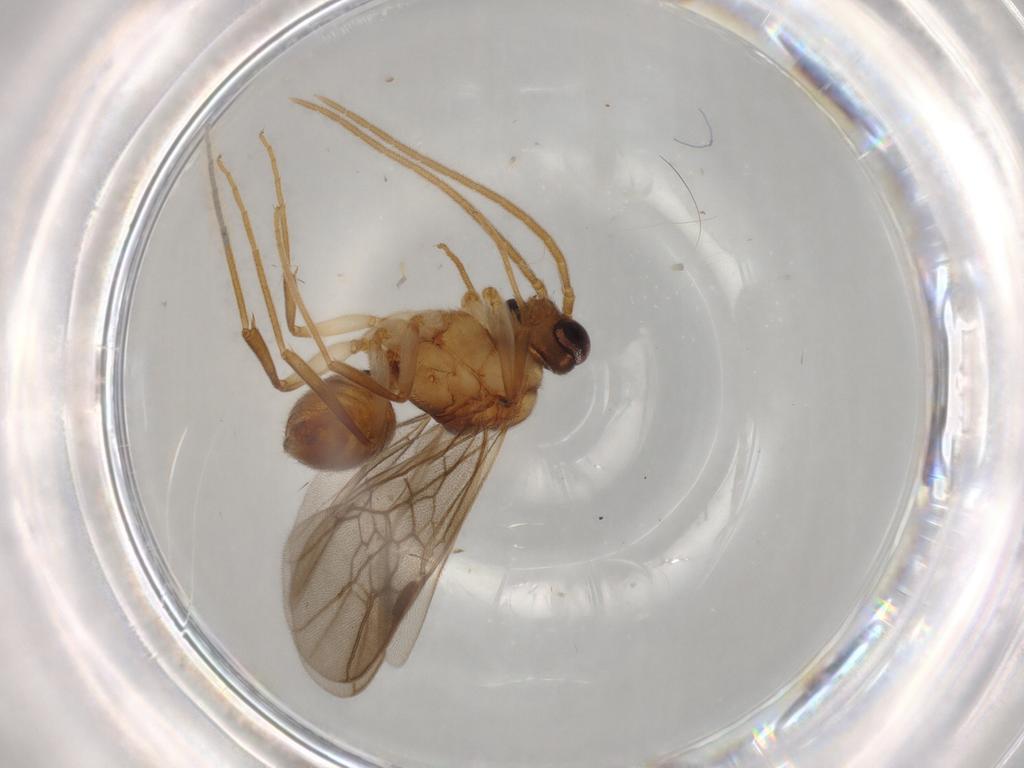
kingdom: Animalia
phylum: Arthropoda
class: Insecta
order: Hymenoptera
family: Formicidae
